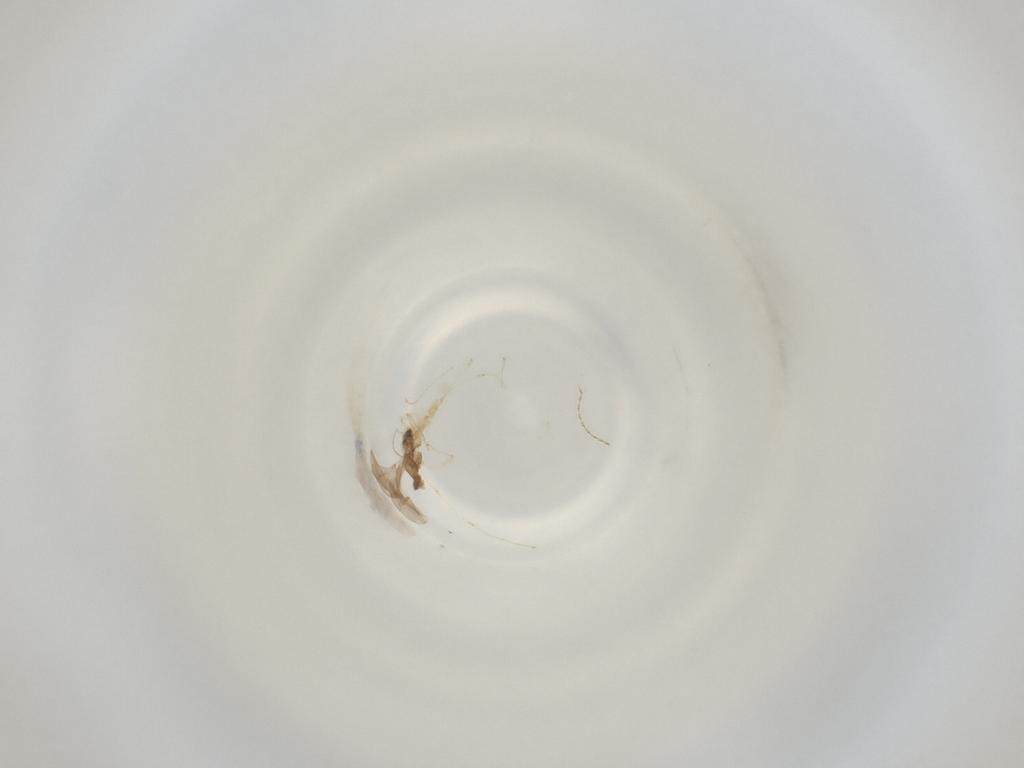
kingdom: Animalia
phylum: Arthropoda
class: Insecta
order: Diptera
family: Cecidomyiidae
